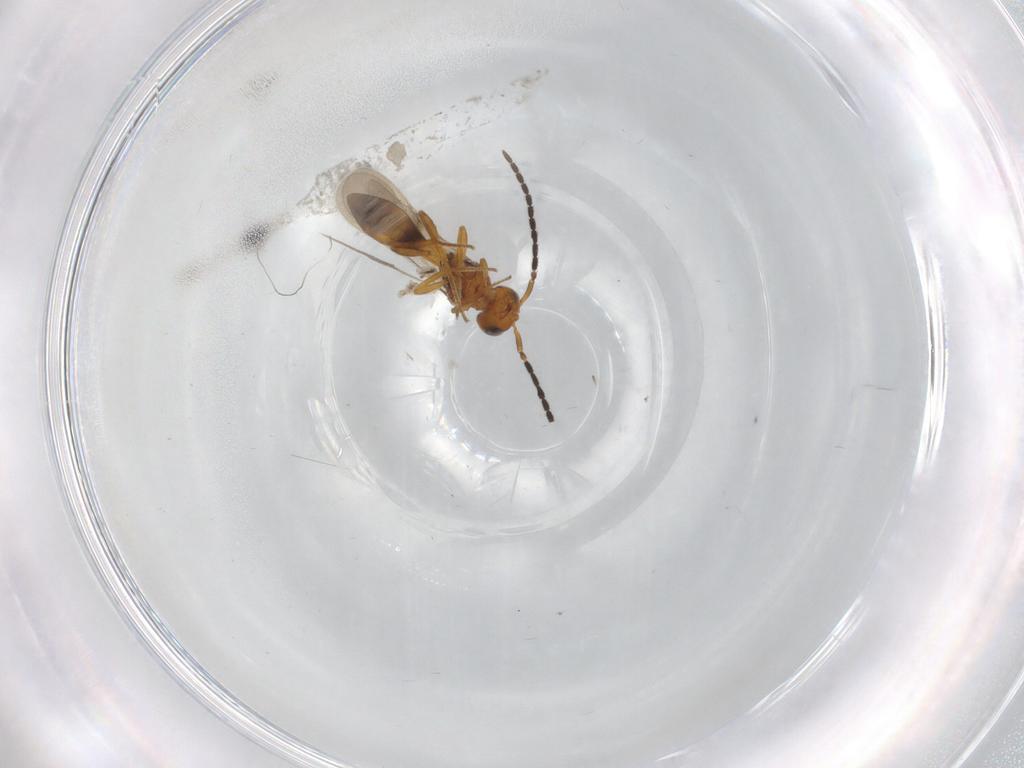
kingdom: Animalia
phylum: Arthropoda
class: Insecta
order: Hymenoptera
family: Scelionidae
